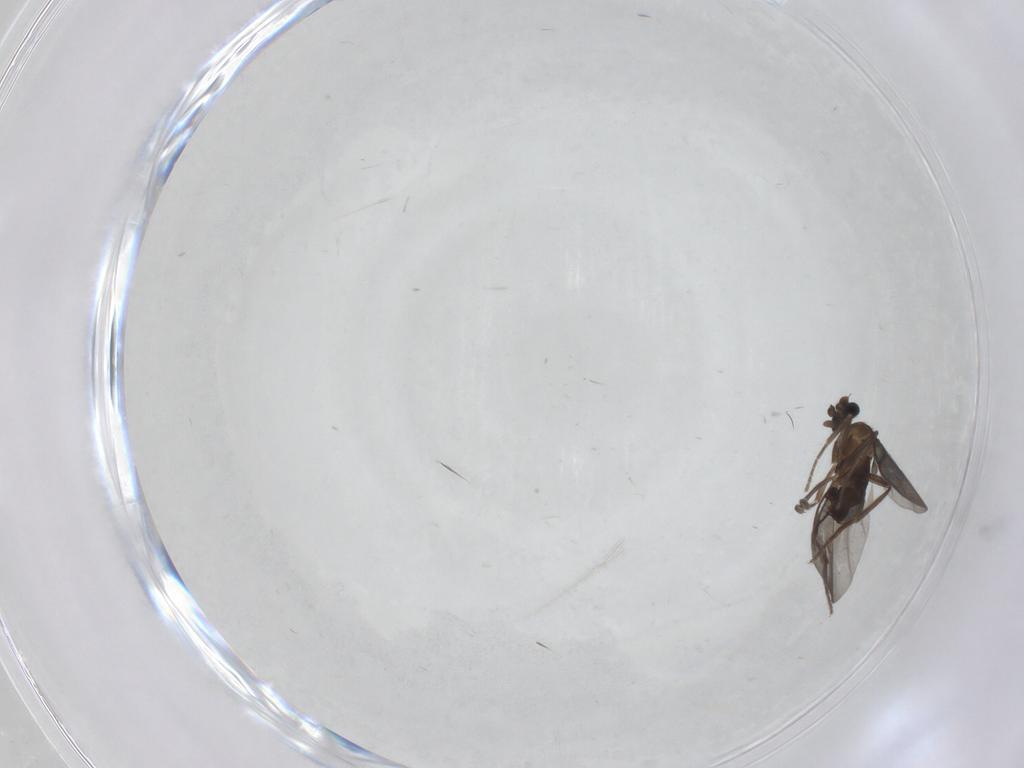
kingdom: Animalia
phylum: Arthropoda
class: Insecta
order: Diptera
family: Phoridae
